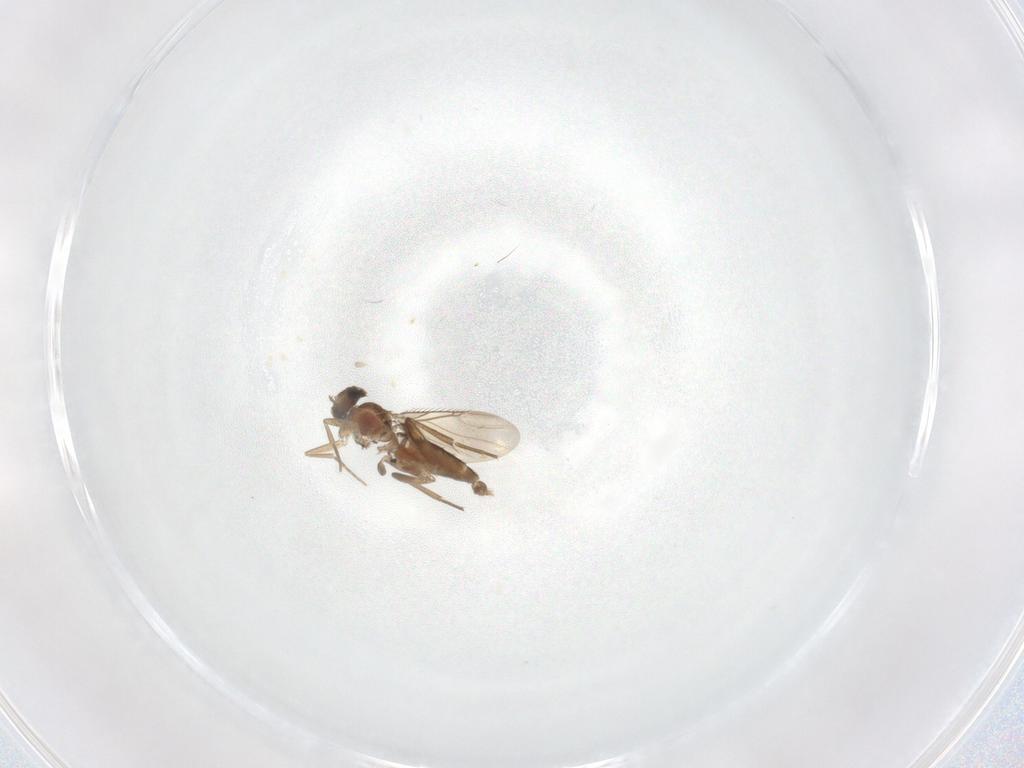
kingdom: Animalia
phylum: Arthropoda
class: Insecta
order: Diptera
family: Phoridae
